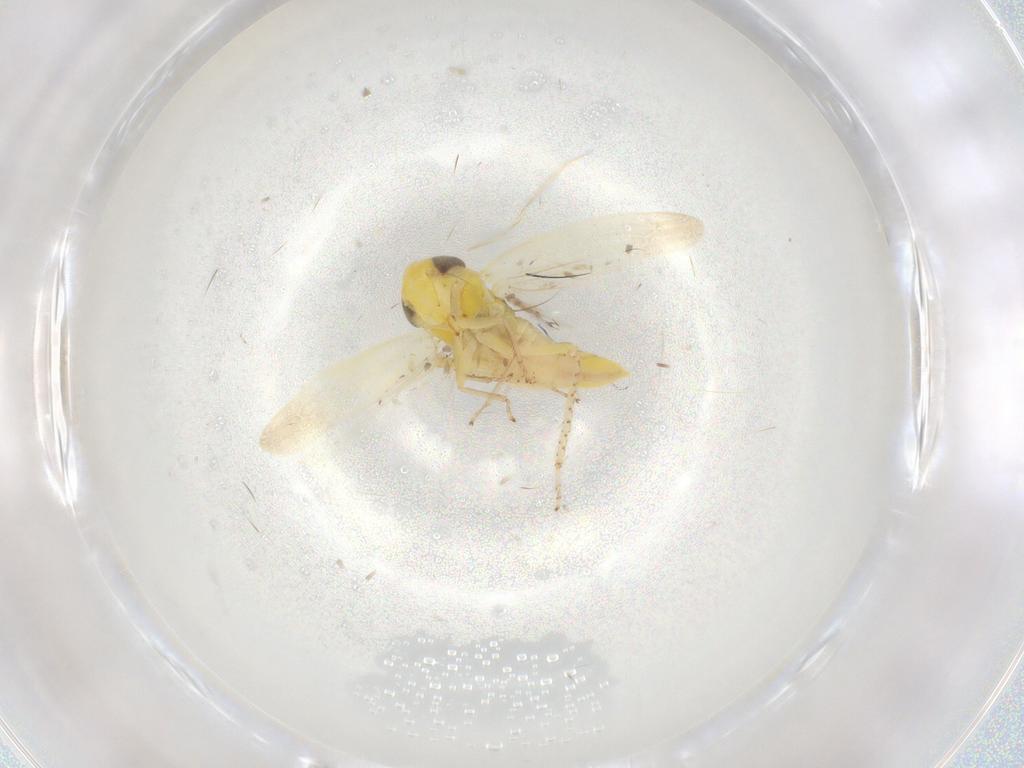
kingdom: Animalia
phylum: Arthropoda
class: Insecta
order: Hemiptera
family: Cicadellidae
